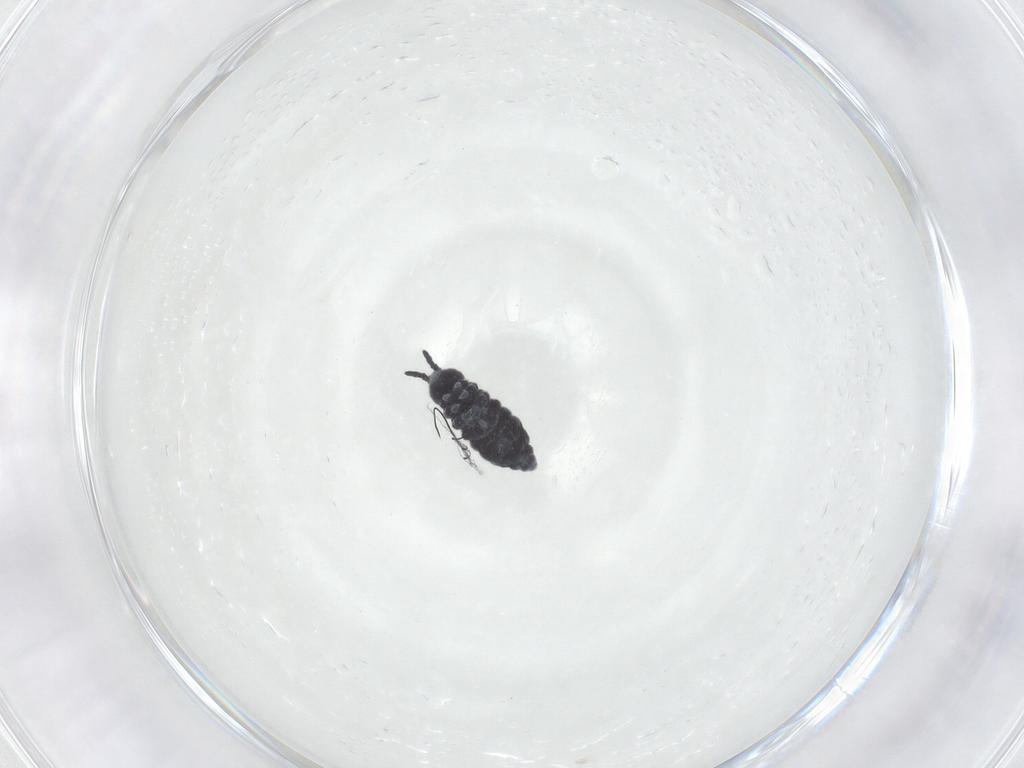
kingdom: Animalia
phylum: Arthropoda
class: Collembola
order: Poduromorpha
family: Hypogastruridae
